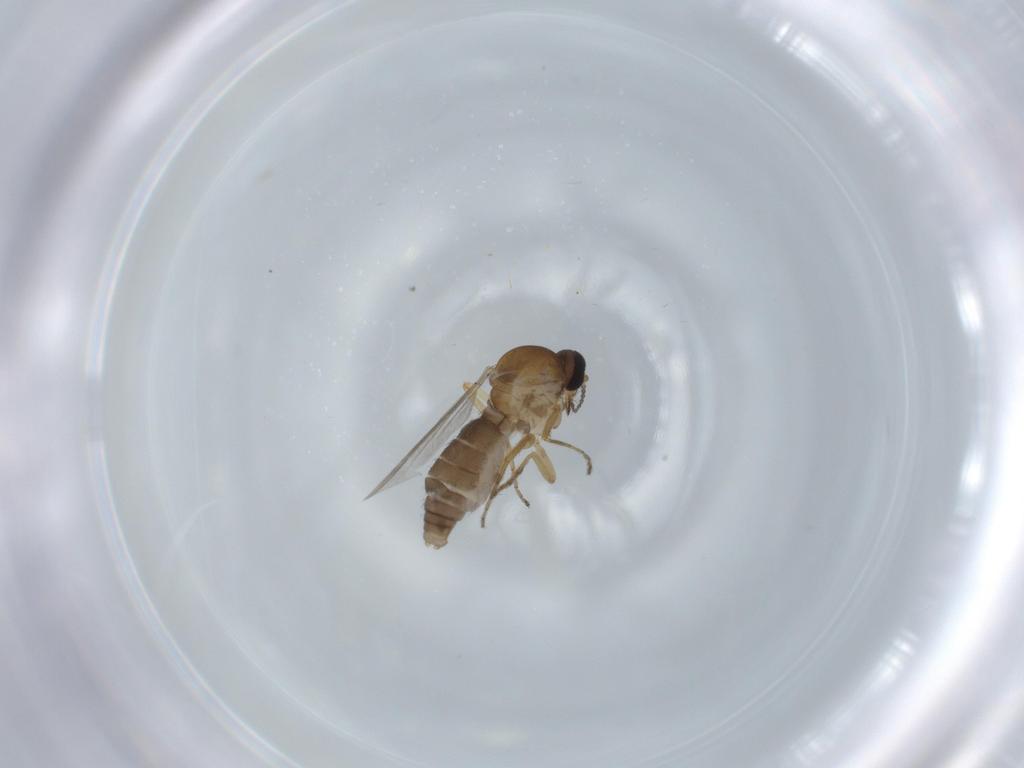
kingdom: Animalia
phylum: Arthropoda
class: Insecta
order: Diptera
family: Ceratopogonidae
